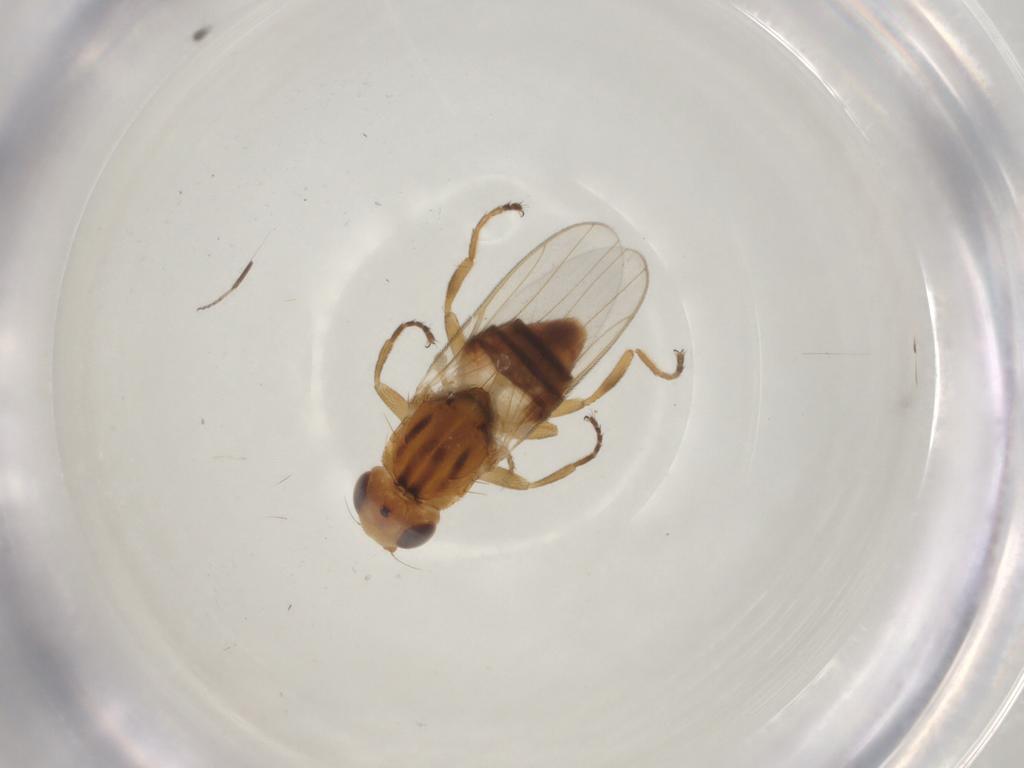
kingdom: Animalia
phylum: Arthropoda
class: Insecta
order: Diptera
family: Chloropidae
